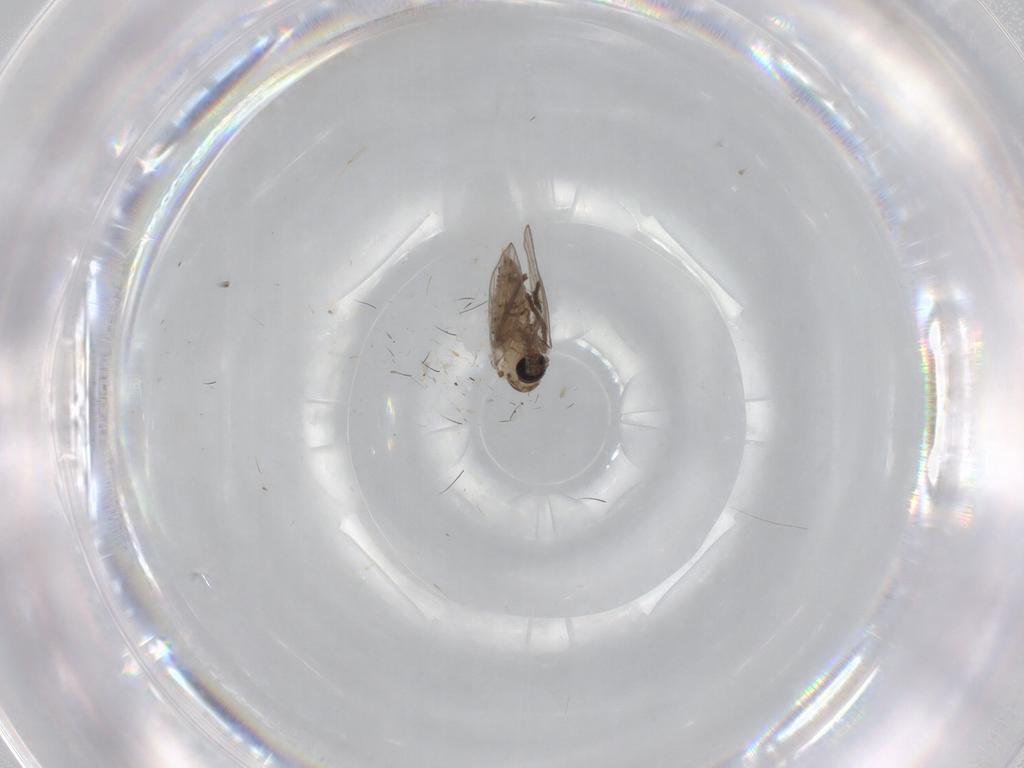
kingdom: Animalia
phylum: Arthropoda
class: Insecta
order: Diptera
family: Psychodidae
